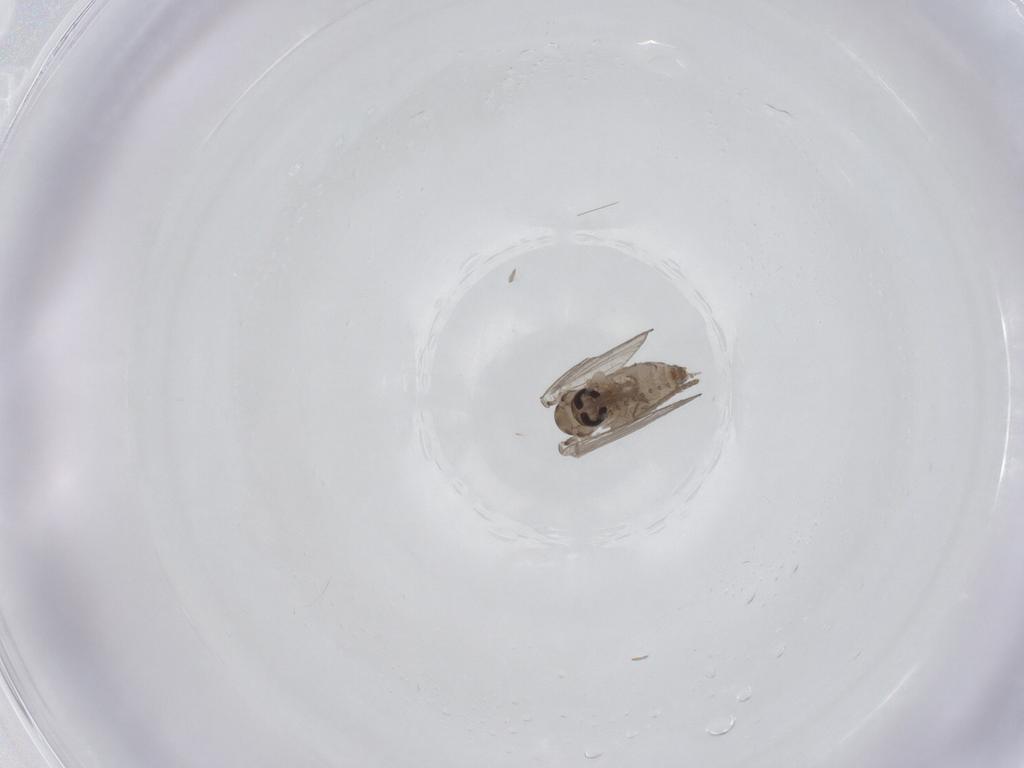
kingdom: Animalia
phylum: Arthropoda
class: Insecta
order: Diptera
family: Psychodidae
